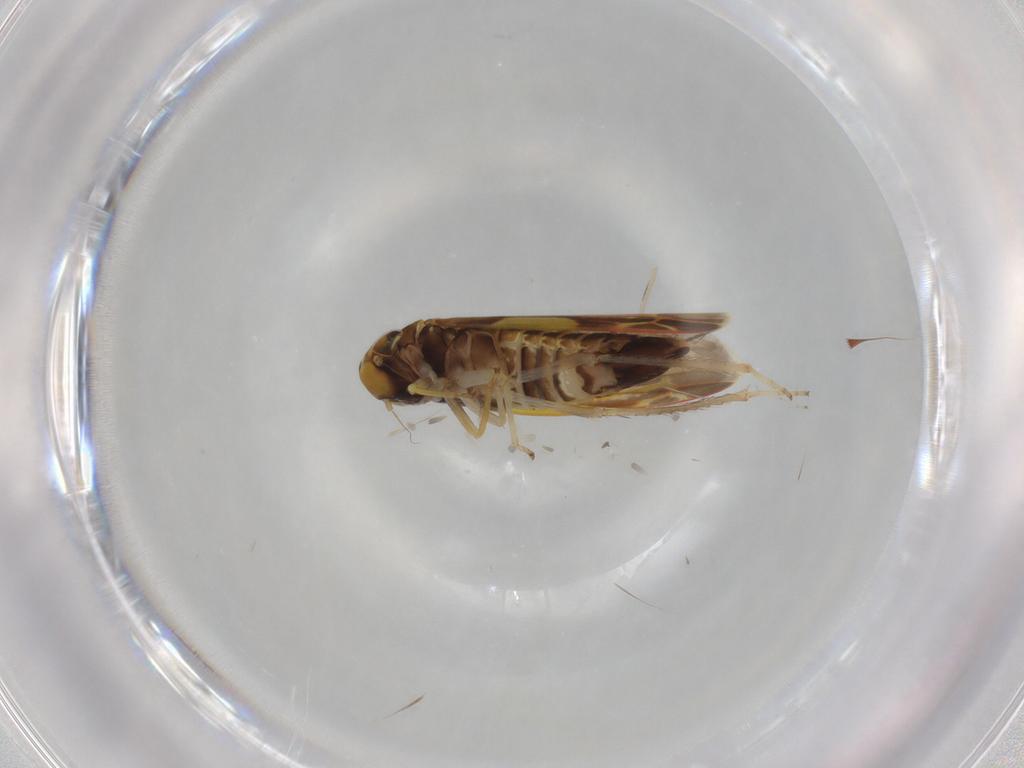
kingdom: Animalia
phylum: Arthropoda
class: Insecta
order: Hemiptera
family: Cicadellidae
